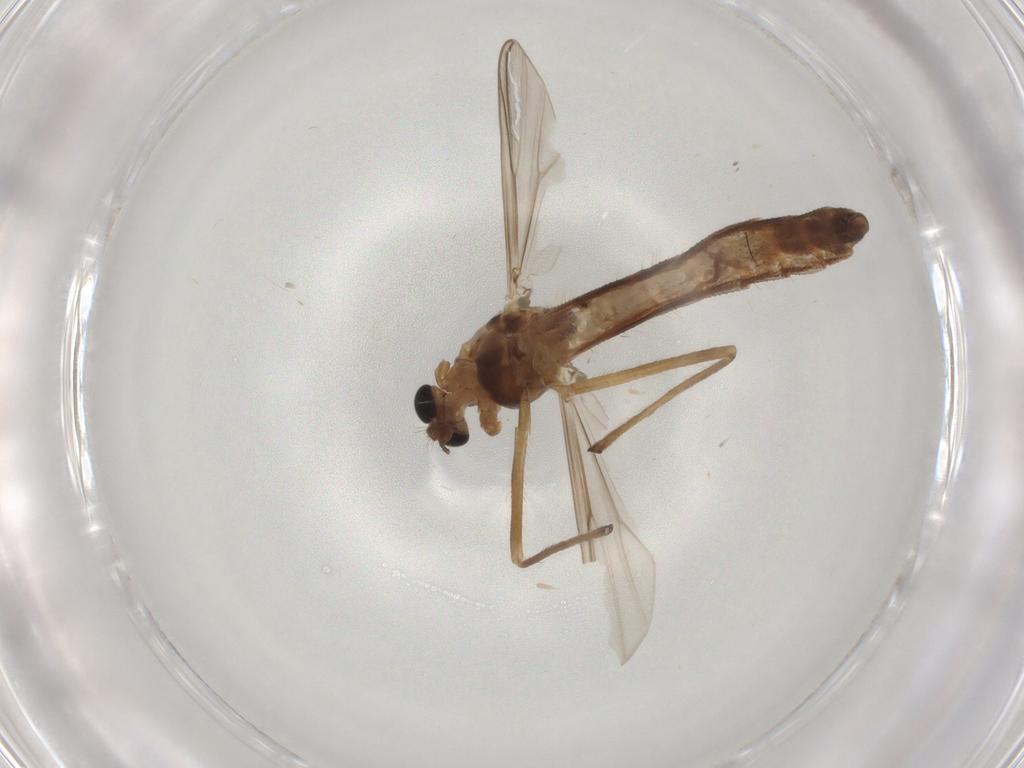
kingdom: Animalia
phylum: Arthropoda
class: Insecta
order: Diptera
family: Chironomidae
